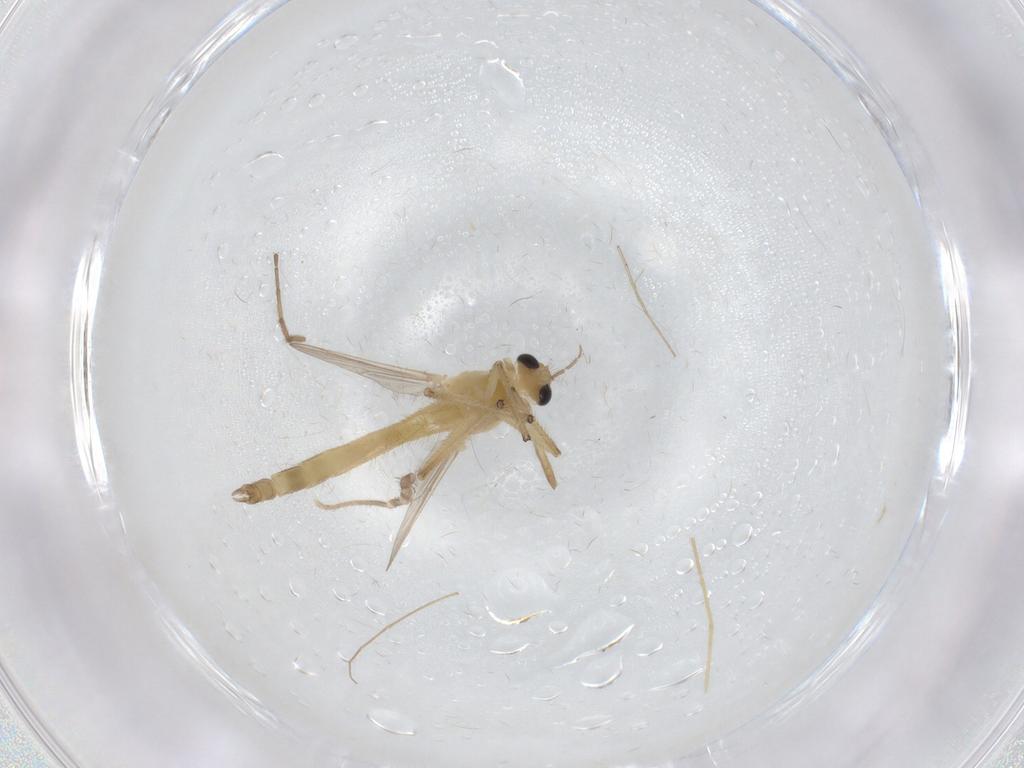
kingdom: Animalia
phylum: Arthropoda
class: Insecta
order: Diptera
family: Chironomidae
